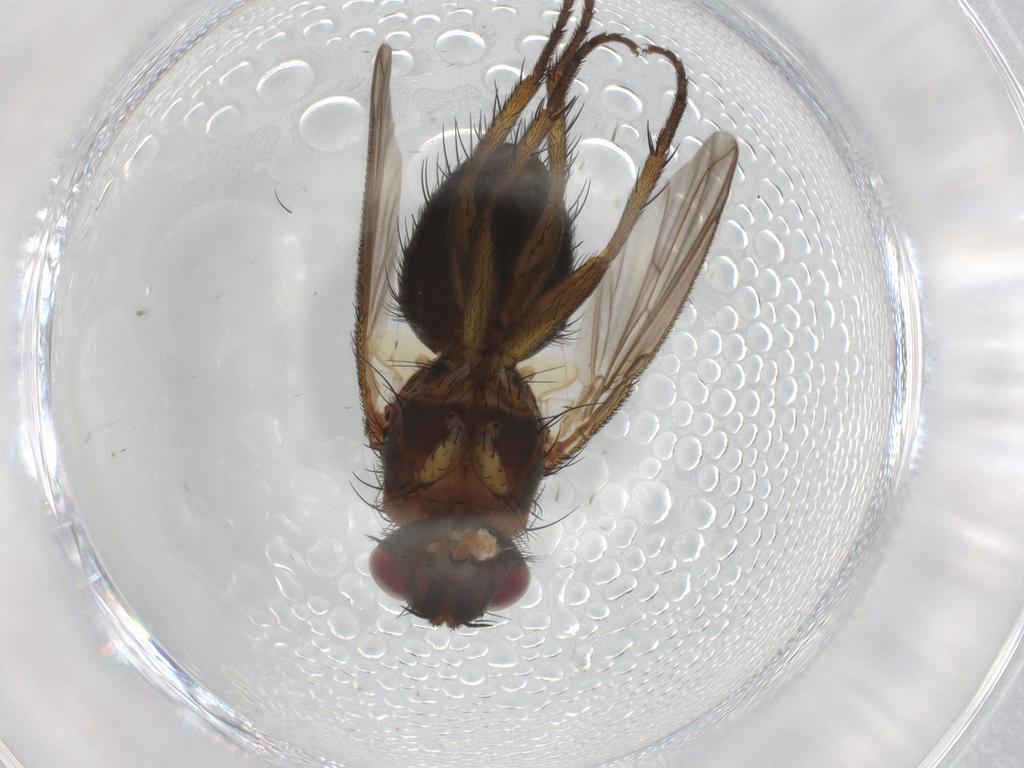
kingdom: Animalia
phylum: Arthropoda
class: Insecta
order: Diptera
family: Tachinidae
